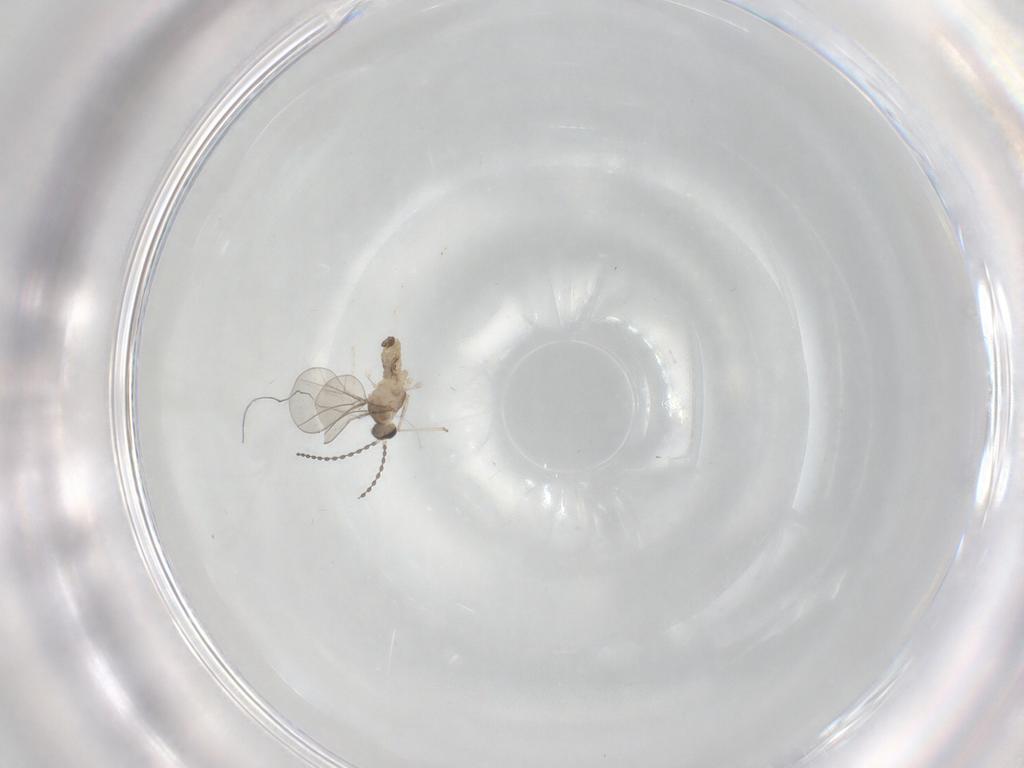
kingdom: Animalia
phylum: Arthropoda
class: Insecta
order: Diptera
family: Cecidomyiidae
